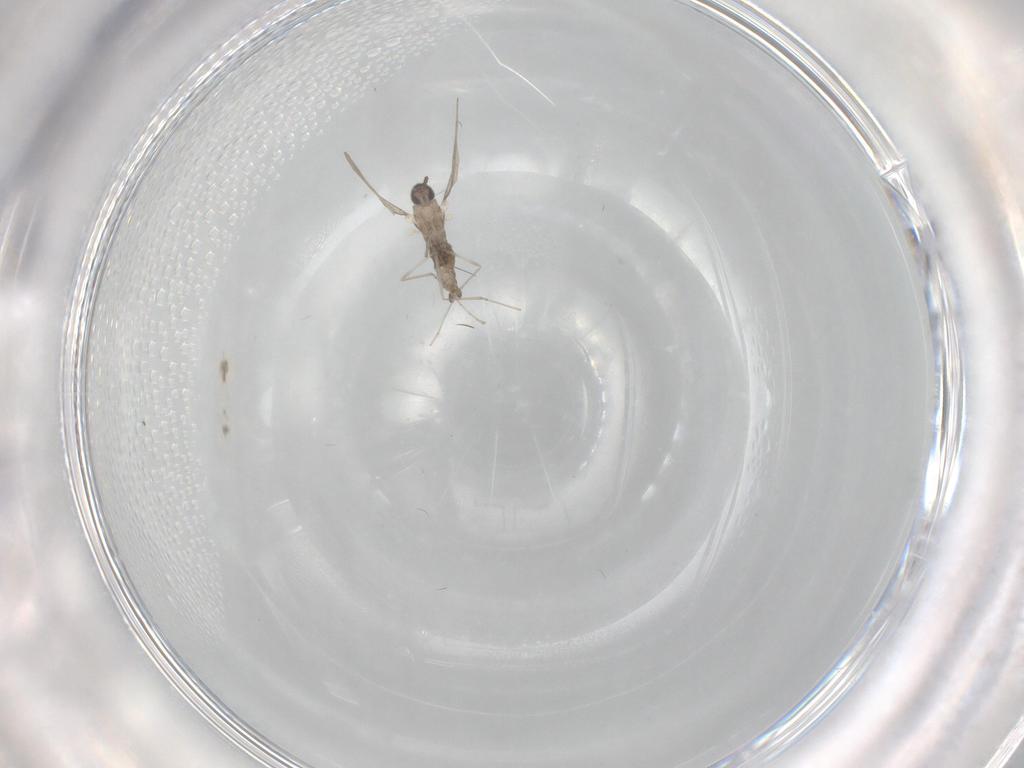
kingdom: Animalia
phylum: Arthropoda
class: Insecta
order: Diptera
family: Cecidomyiidae
